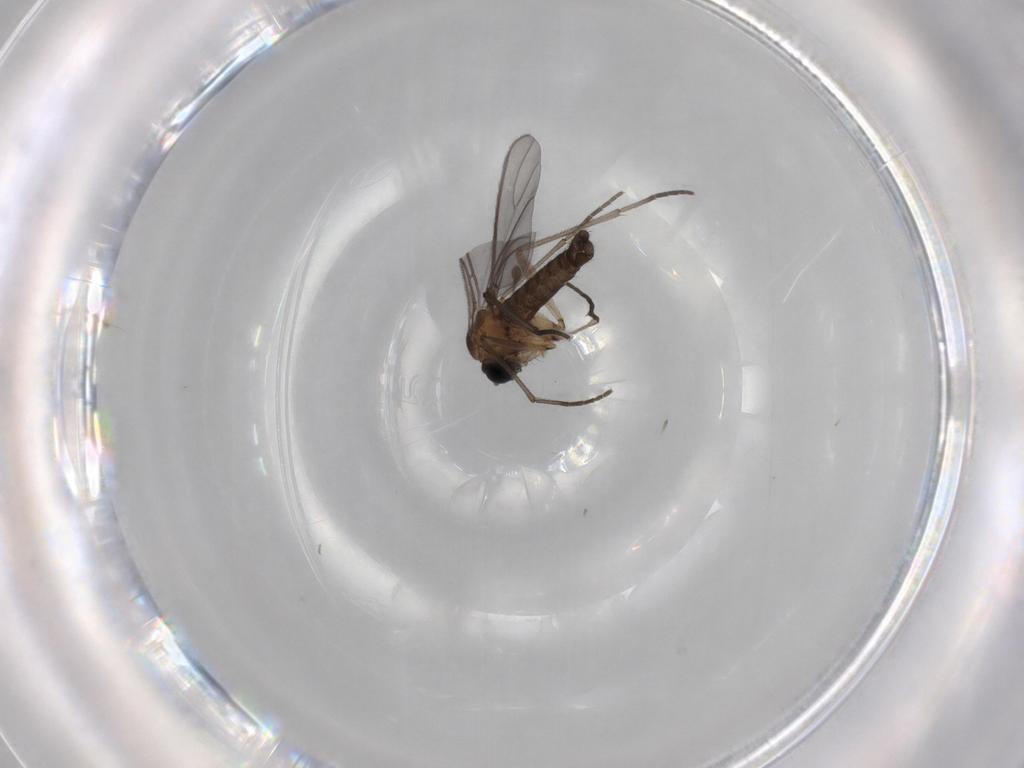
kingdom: Animalia
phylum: Arthropoda
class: Insecta
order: Diptera
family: Sciaridae
